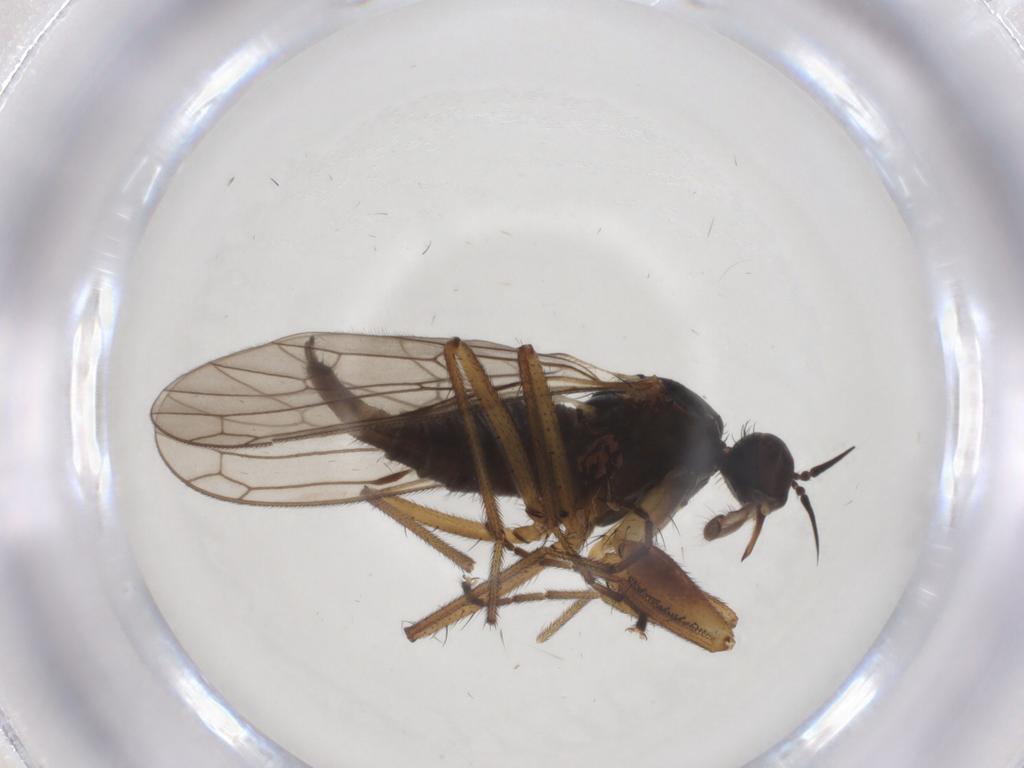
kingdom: Animalia
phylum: Arthropoda
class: Insecta
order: Diptera
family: Cecidomyiidae
